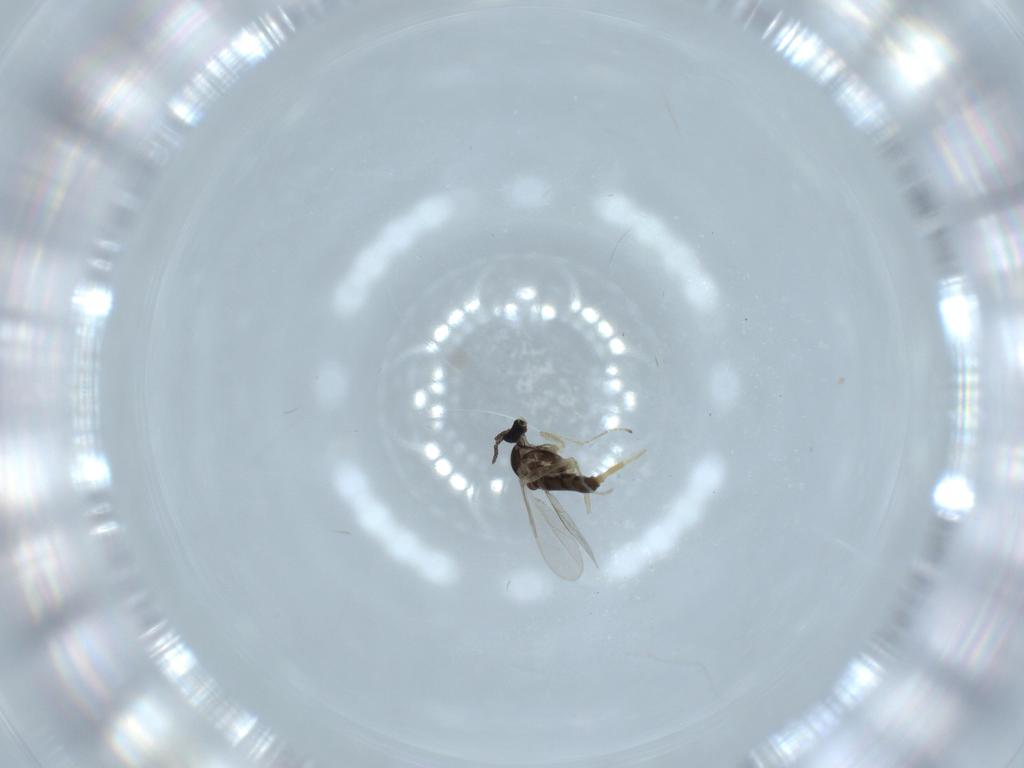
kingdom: Animalia
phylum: Arthropoda
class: Insecta
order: Diptera
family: Cecidomyiidae
